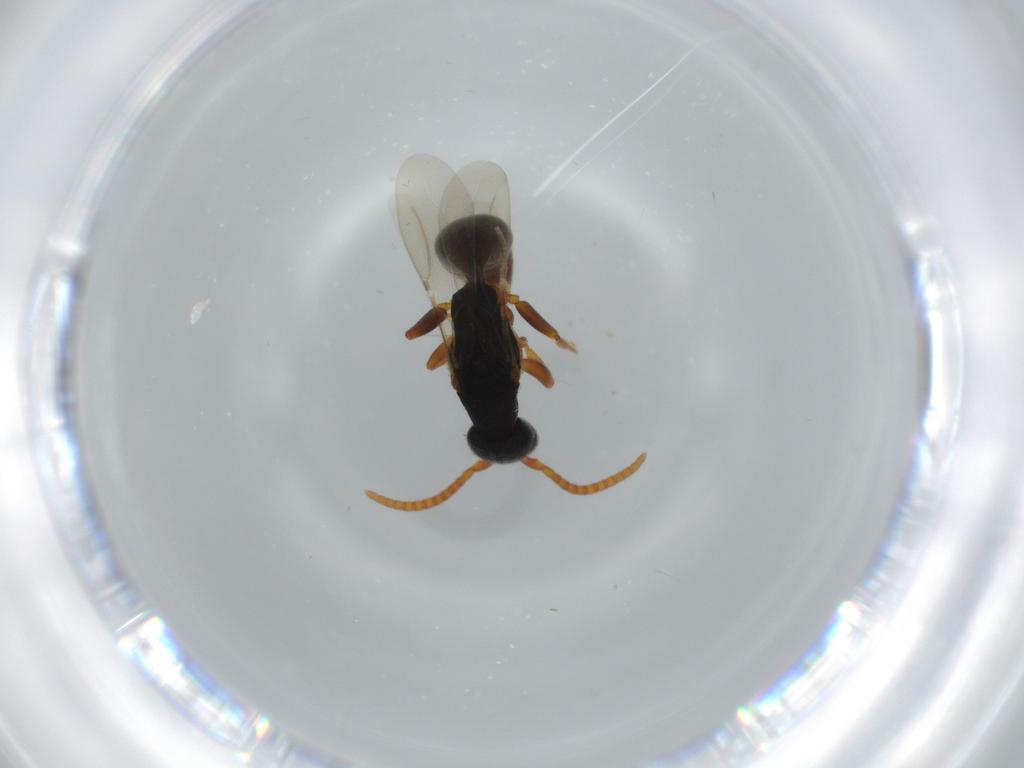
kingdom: Animalia
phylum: Arthropoda
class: Insecta
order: Hymenoptera
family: Bethylidae
